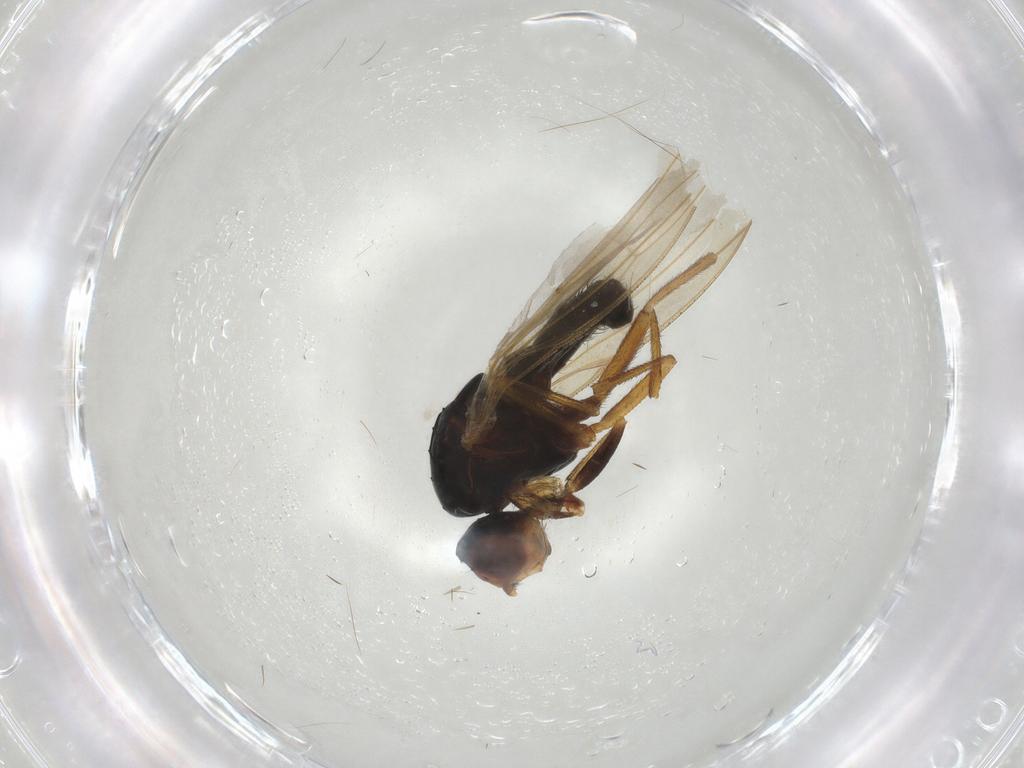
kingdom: Animalia
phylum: Arthropoda
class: Insecta
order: Diptera
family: Heleomyzidae
